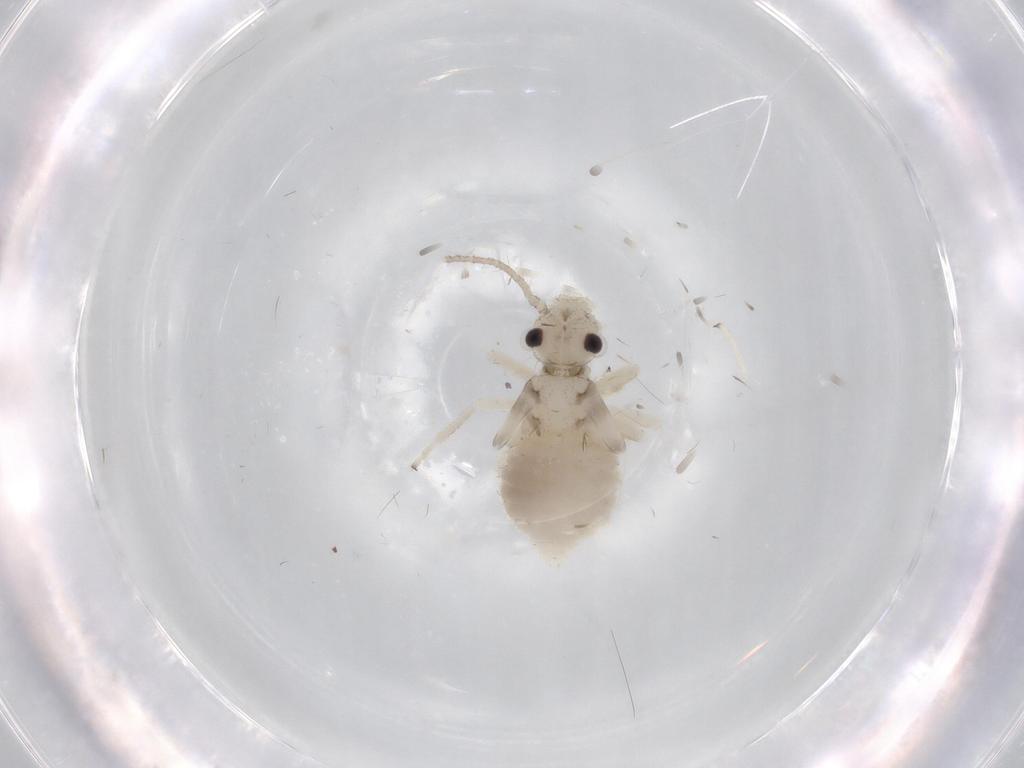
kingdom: Animalia
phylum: Arthropoda
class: Insecta
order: Psocodea
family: Amphipsocidae
